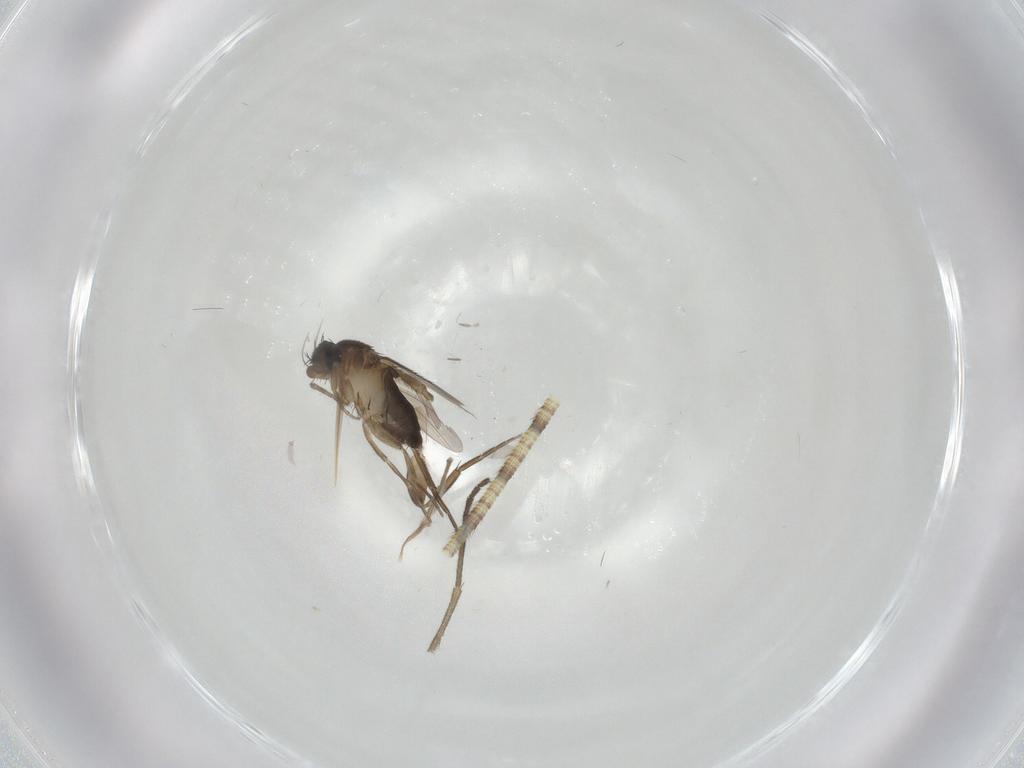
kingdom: Animalia
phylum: Arthropoda
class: Insecta
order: Diptera
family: Phoridae
